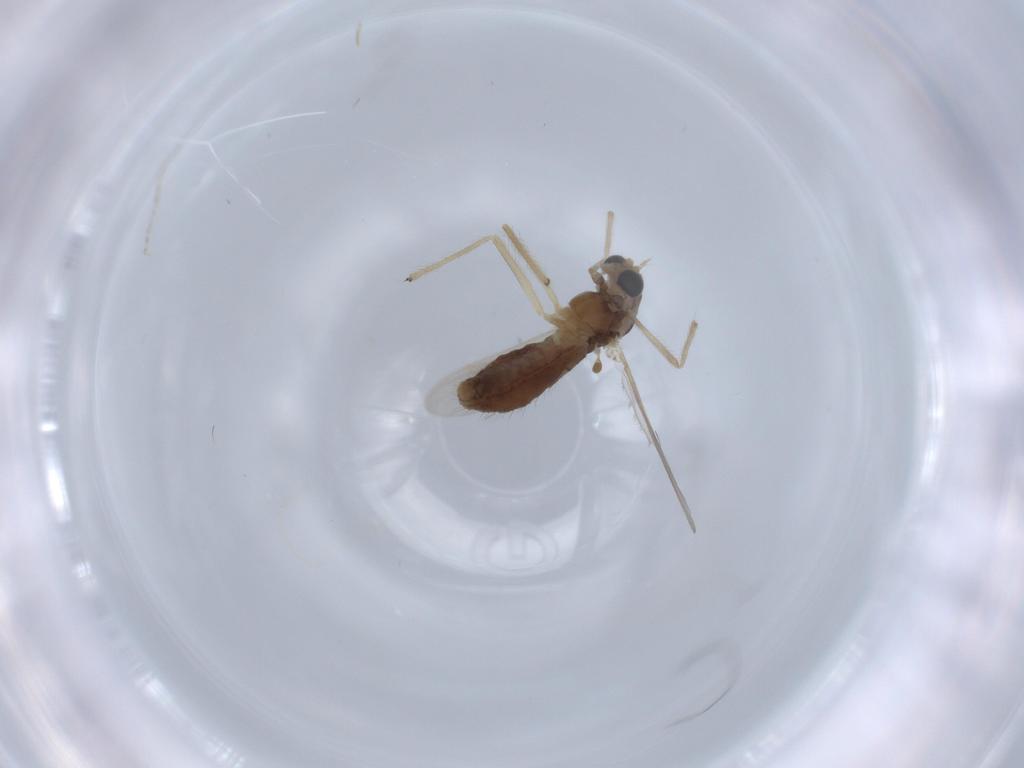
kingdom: Animalia
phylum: Arthropoda
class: Insecta
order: Diptera
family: Chironomidae
